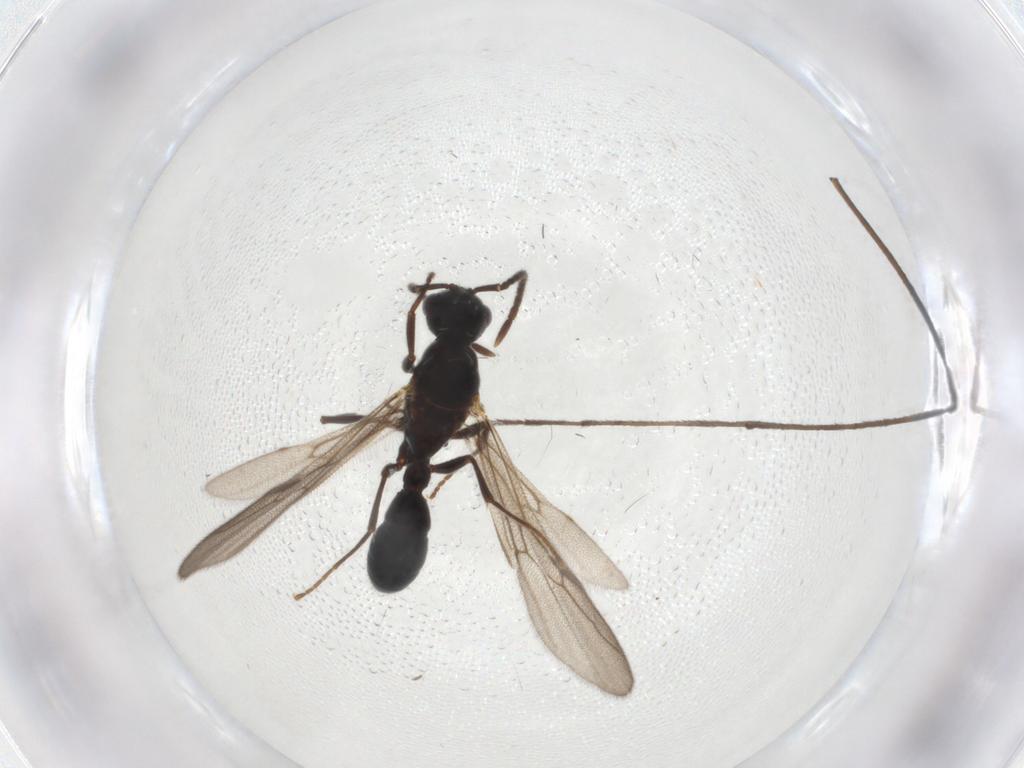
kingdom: Animalia
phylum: Arthropoda
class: Insecta
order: Hymenoptera
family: Formicidae
